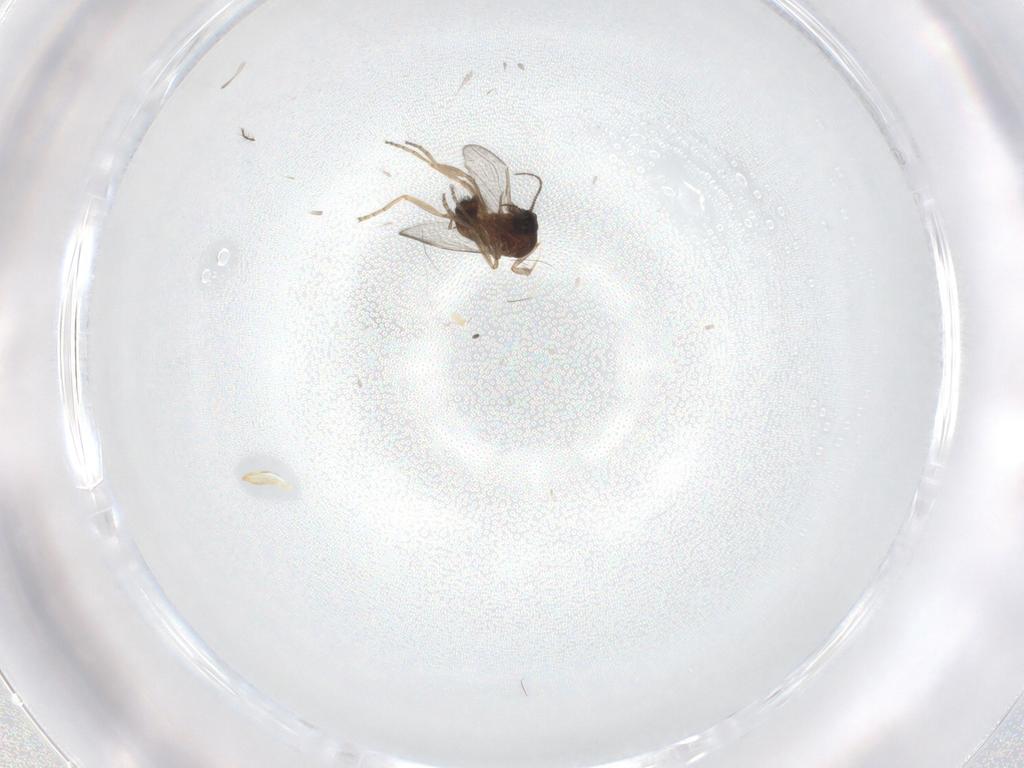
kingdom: Animalia
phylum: Arthropoda
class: Insecta
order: Diptera
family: Ceratopogonidae
